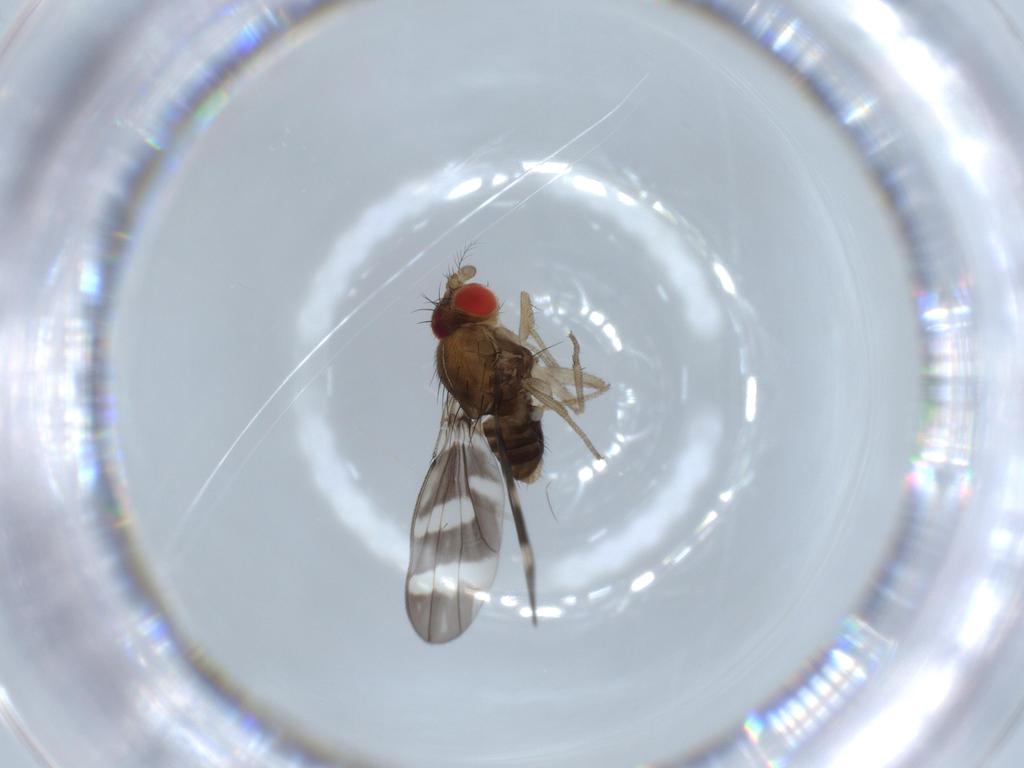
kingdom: Animalia
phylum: Arthropoda
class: Insecta
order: Diptera
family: Drosophilidae
